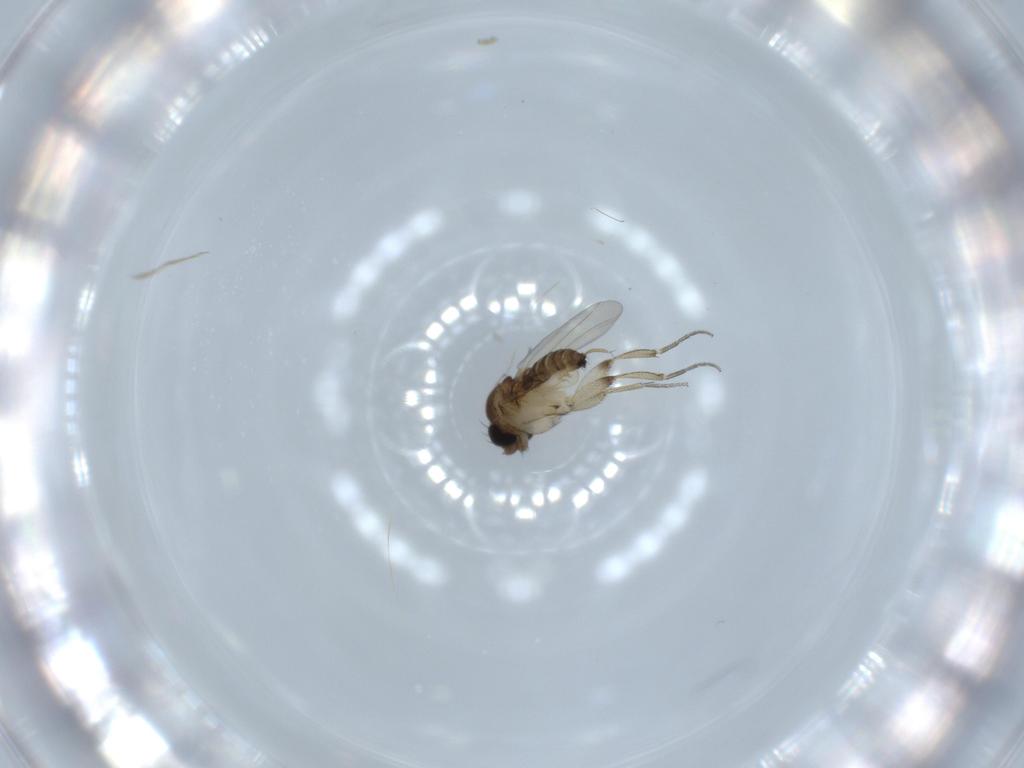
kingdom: Animalia
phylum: Arthropoda
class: Insecta
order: Diptera
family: Phoridae
